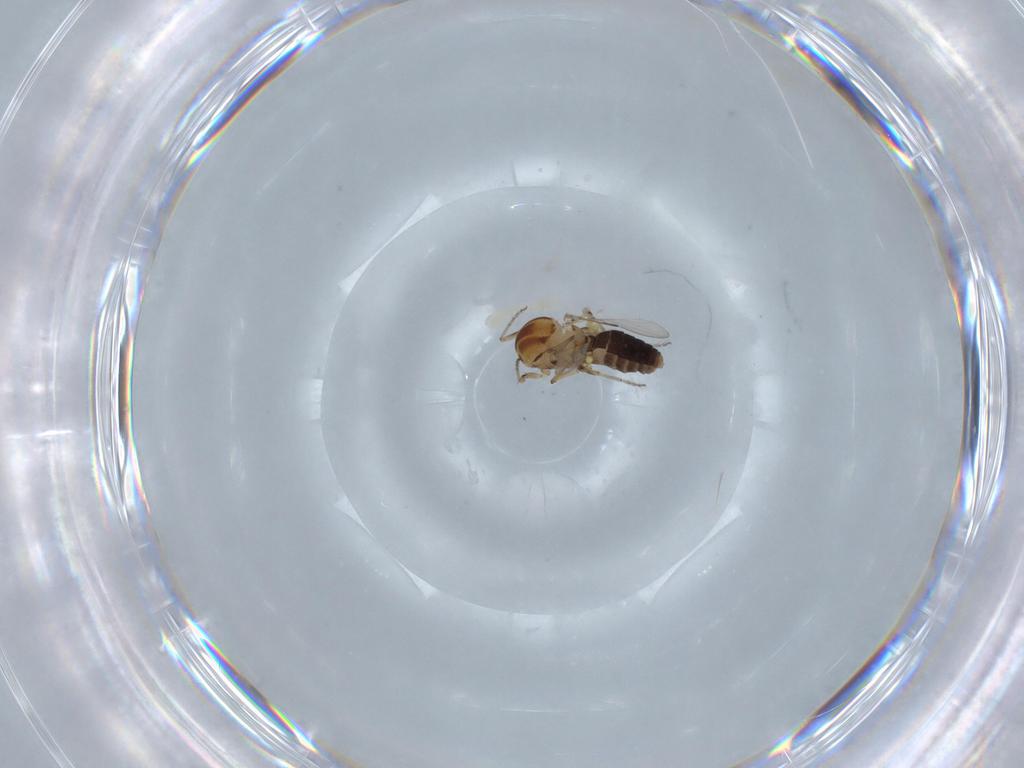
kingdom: Animalia
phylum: Arthropoda
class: Insecta
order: Diptera
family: Ephydridae
